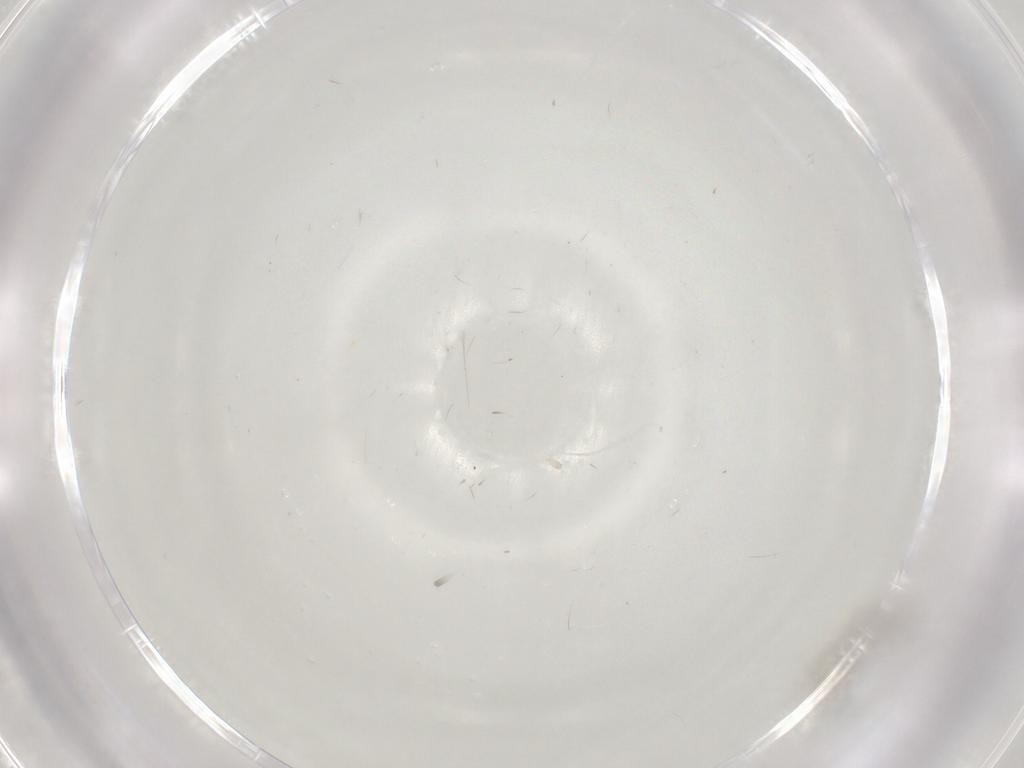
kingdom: Animalia
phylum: Arthropoda
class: Insecta
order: Diptera
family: Cecidomyiidae
